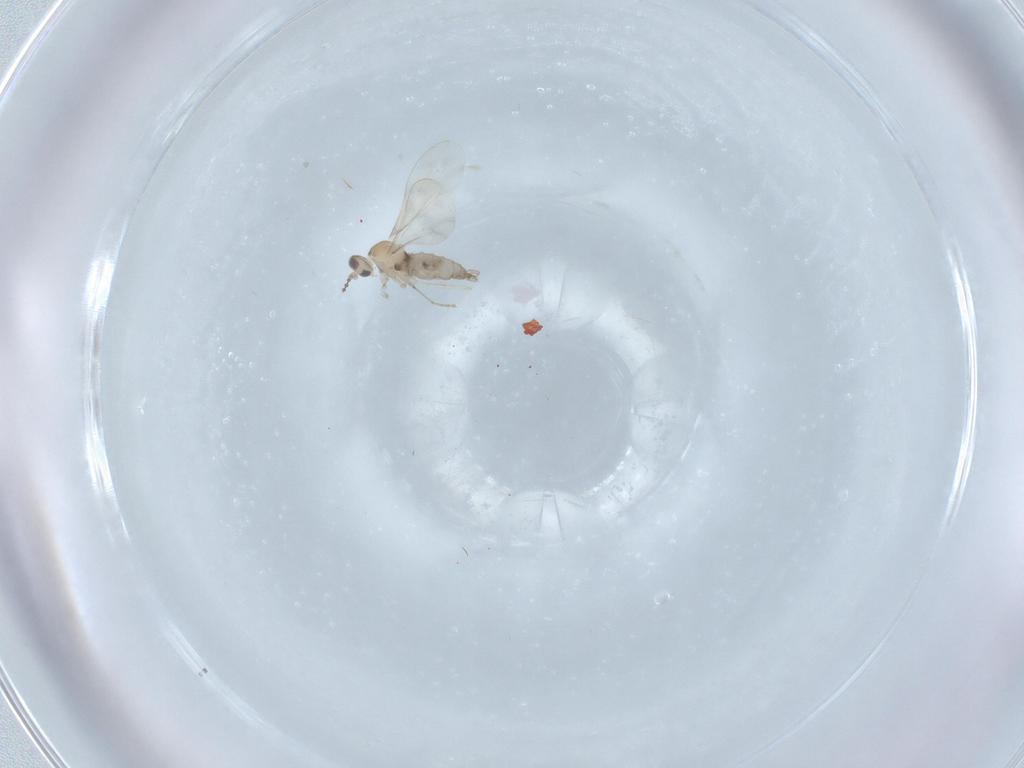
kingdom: Animalia
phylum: Arthropoda
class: Insecta
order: Diptera
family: Cecidomyiidae
